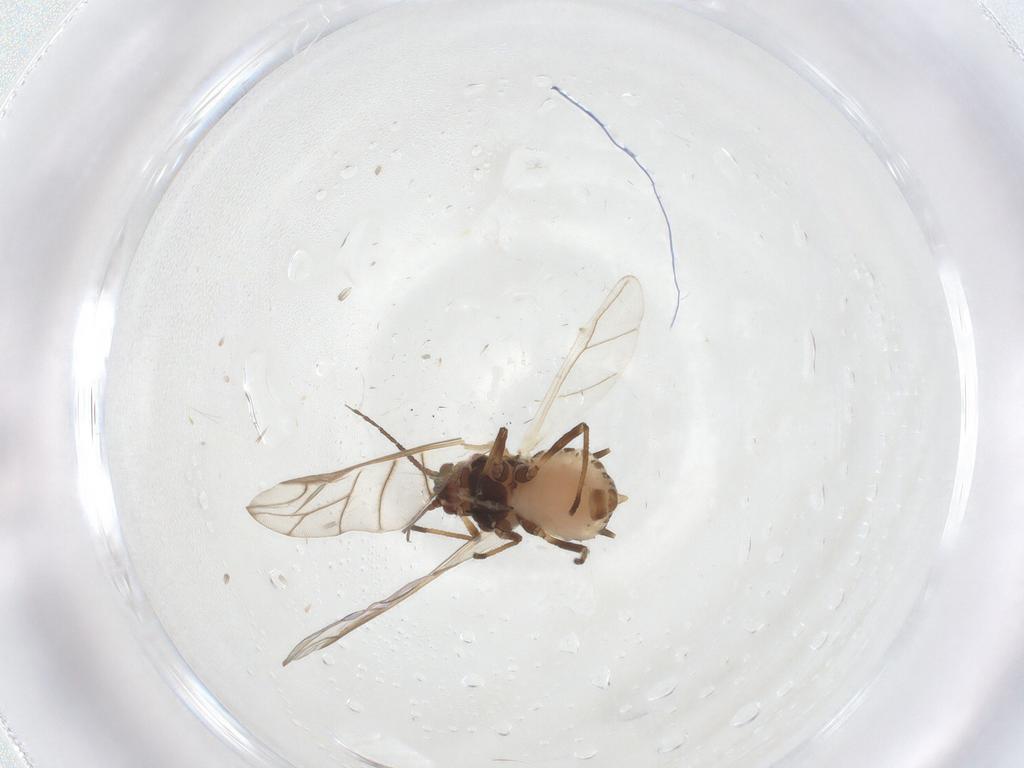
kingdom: Animalia
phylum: Arthropoda
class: Insecta
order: Hemiptera
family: Aphididae
